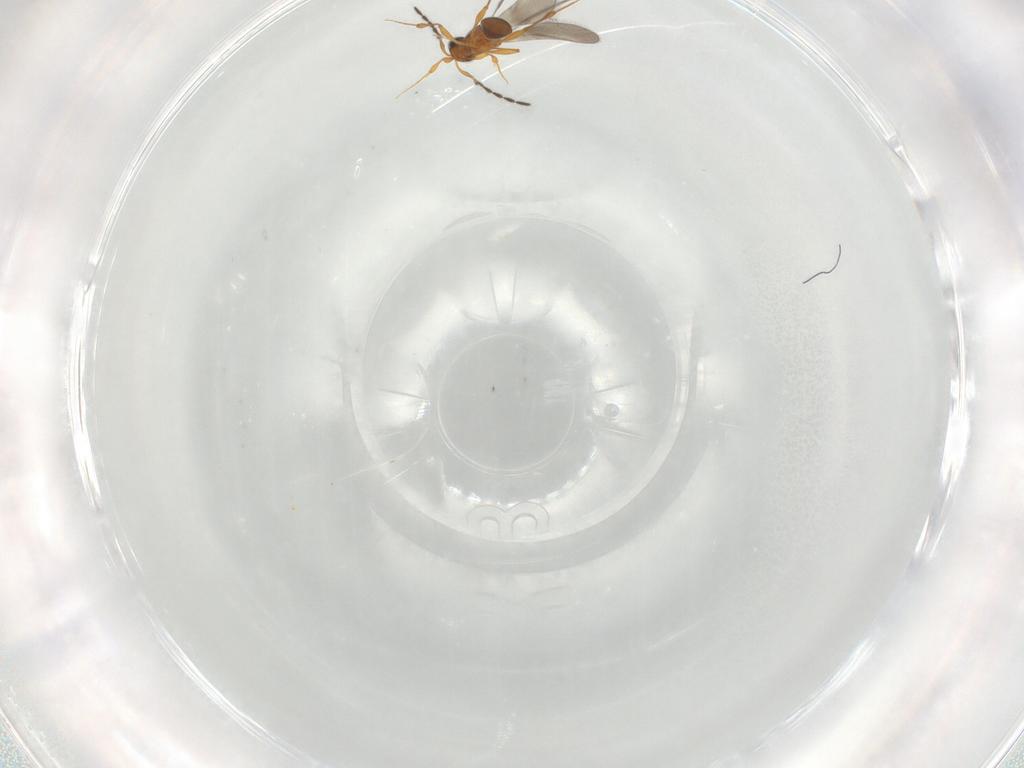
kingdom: Animalia
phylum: Arthropoda
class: Insecta
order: Hymenoptera
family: Platygastridae
